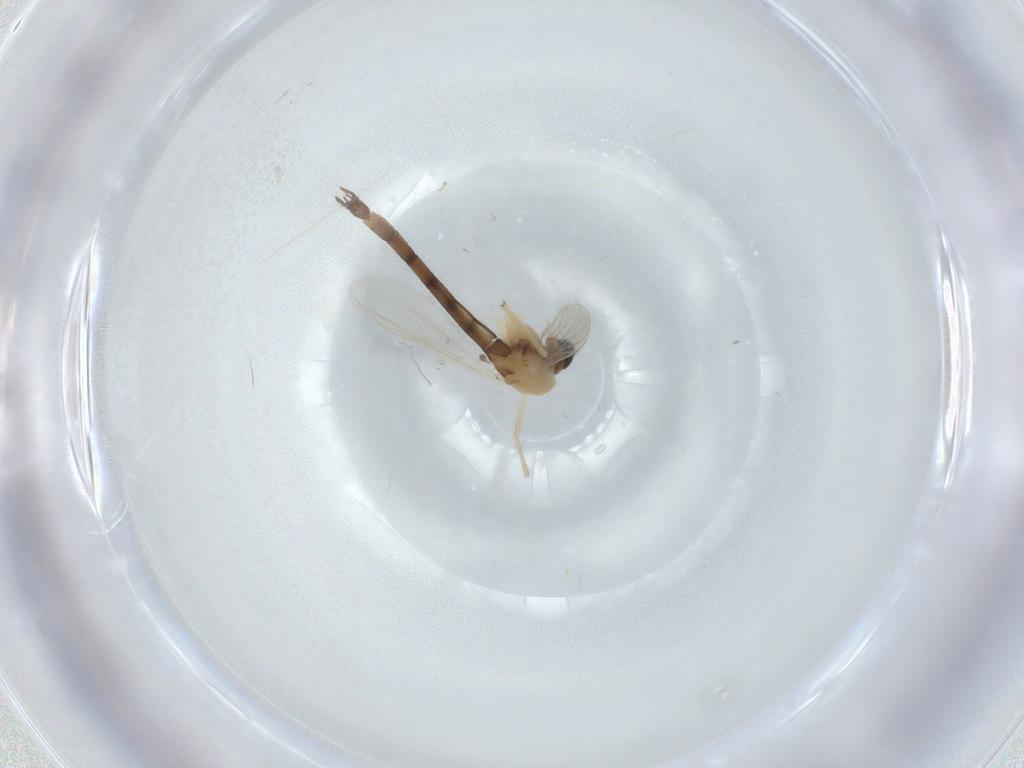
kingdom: Animalia
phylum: Arthropoda
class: Insecta
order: Diptera
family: Chironomidae
